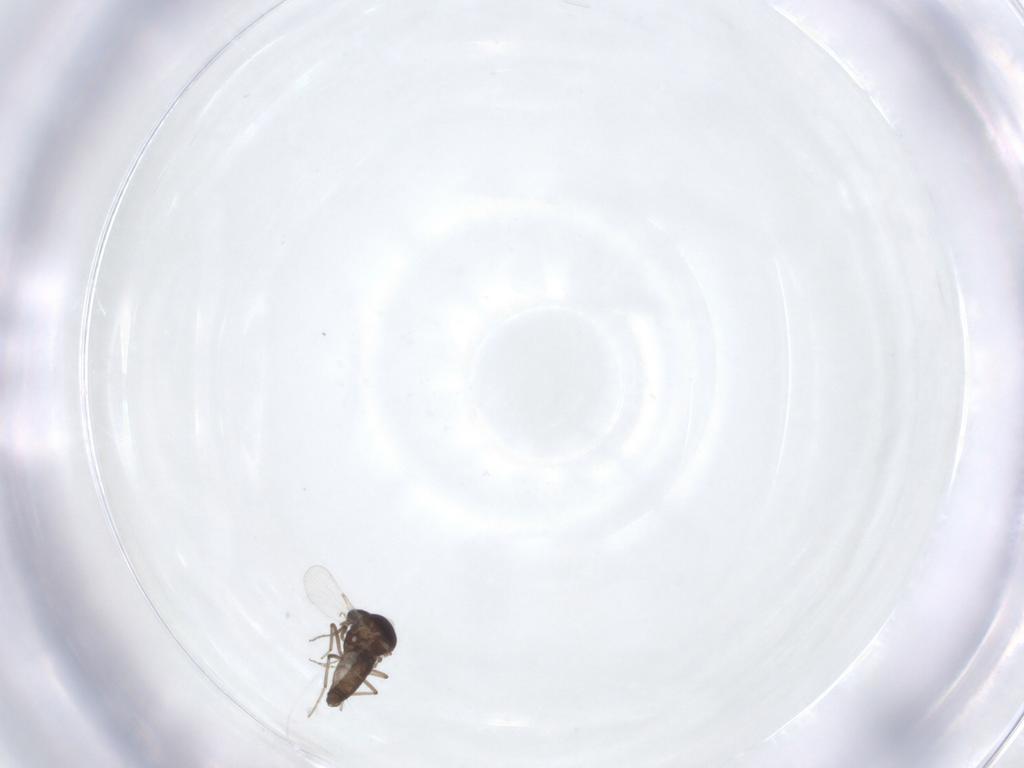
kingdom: Animalia
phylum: Arthropoda
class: Insecta
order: Diptera
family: Ceratopogonidae
